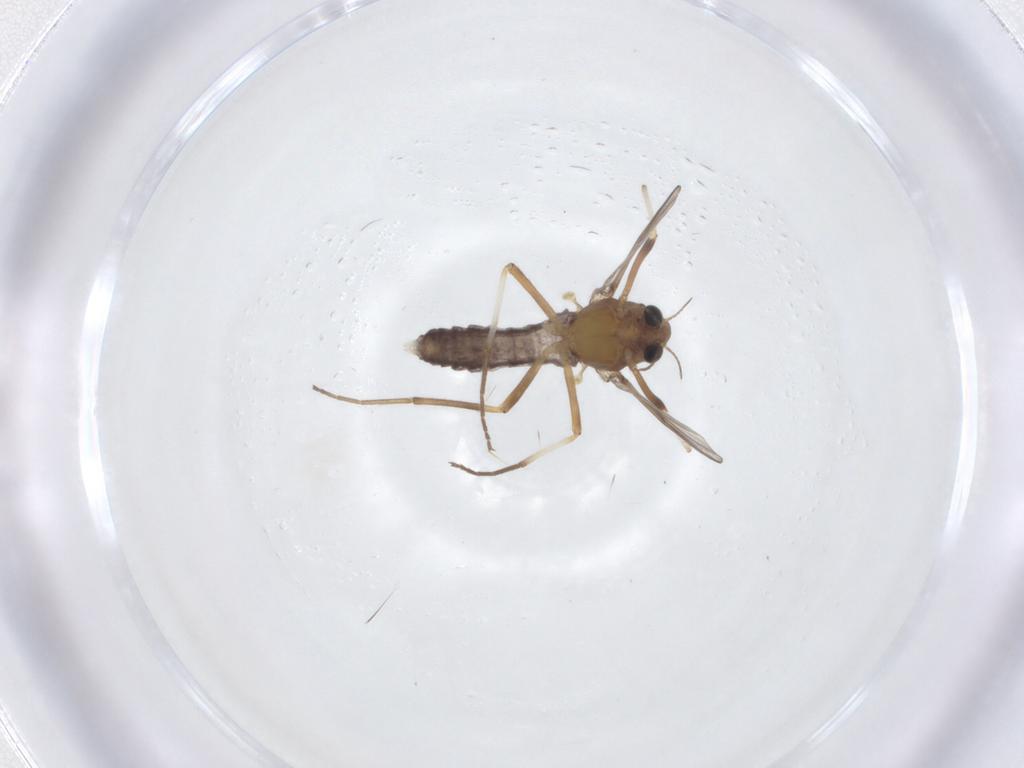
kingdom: Animalia
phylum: Arthropoda
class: Insecta
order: Diptera
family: Chironomidae
